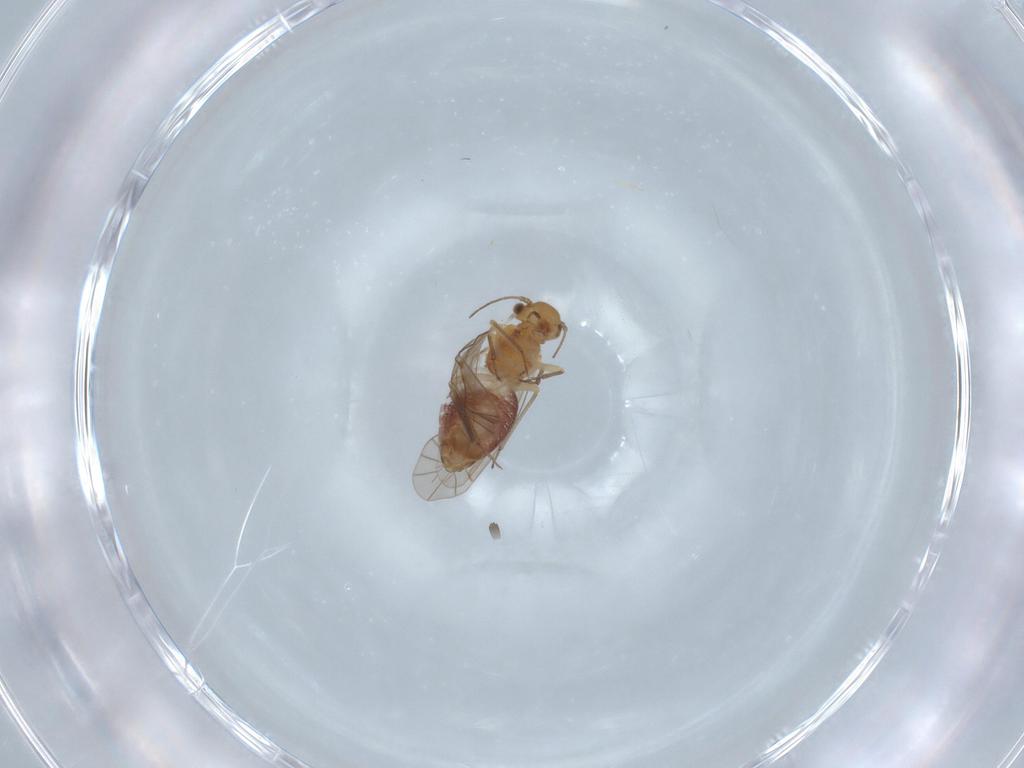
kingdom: Animalia
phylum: Arthropoda
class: Insecta
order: Psocodea
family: Lachesillidae
